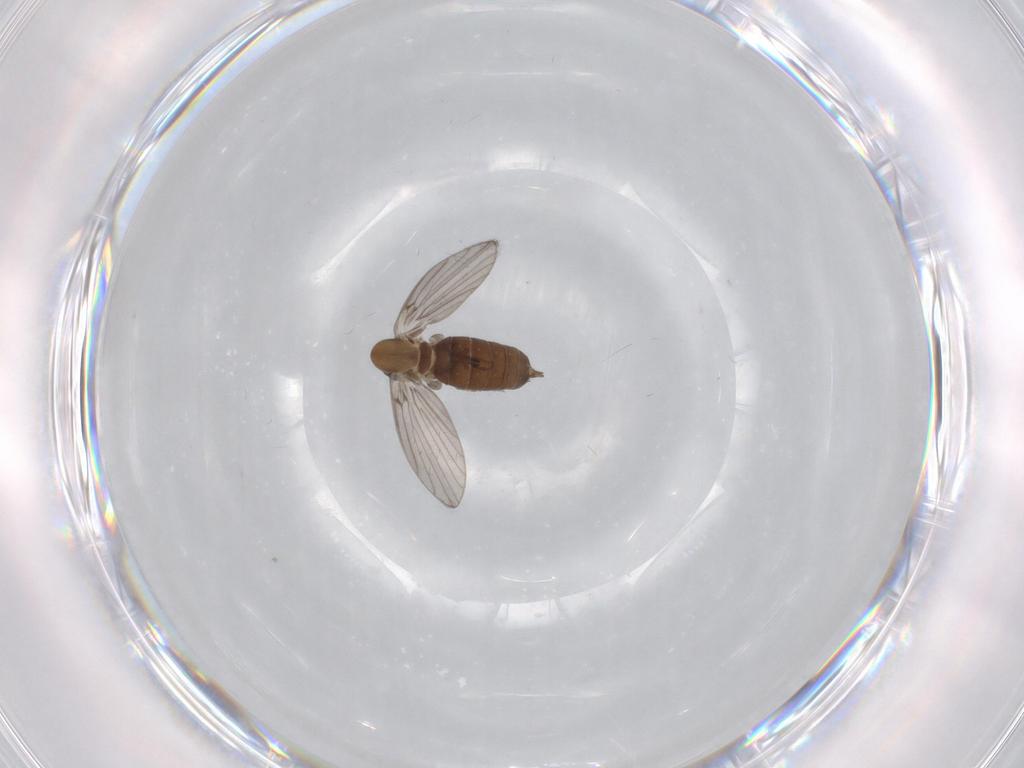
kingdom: Animalia
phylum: Arthropoda
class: Insecta
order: Diptera
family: Psychodidae
